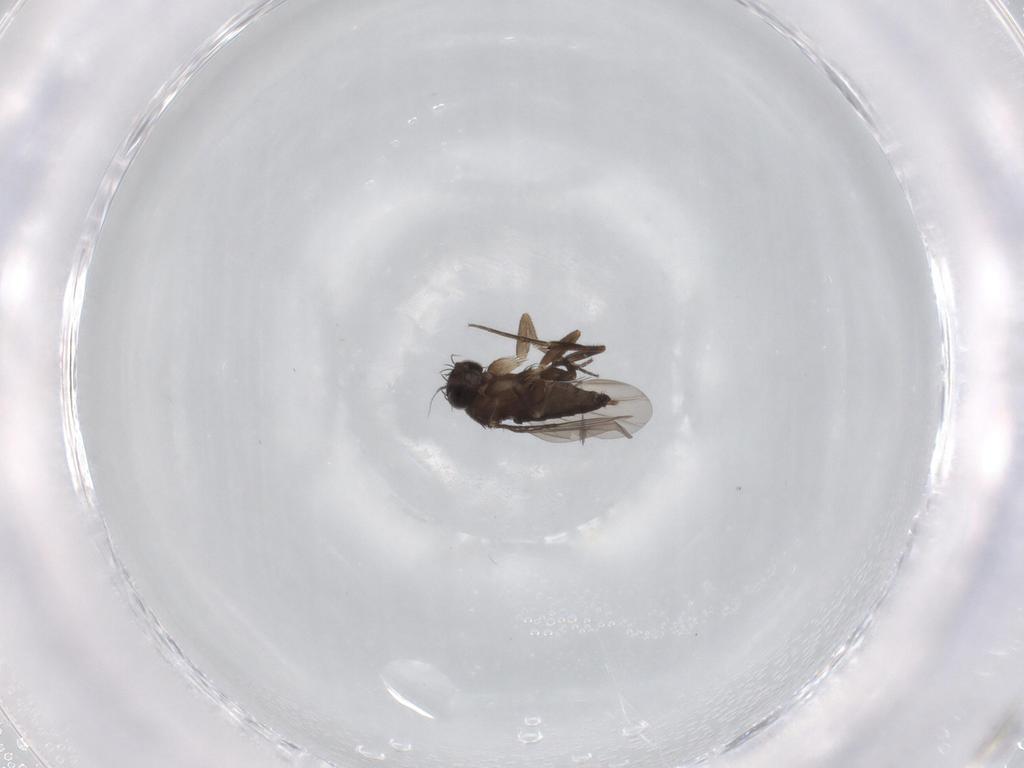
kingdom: Animalia
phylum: Arthropoda
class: Insecta
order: Diptera
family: Phoridae
